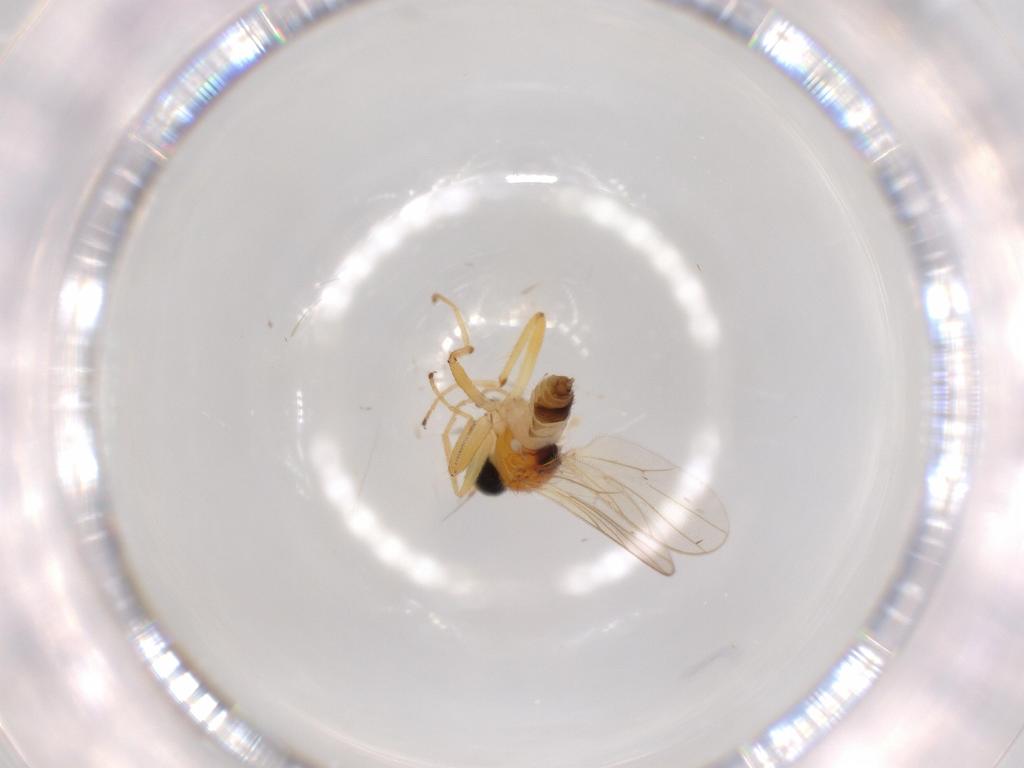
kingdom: Animalia
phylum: Arthropoda
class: Insecta
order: Diptera
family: Hybotidae
